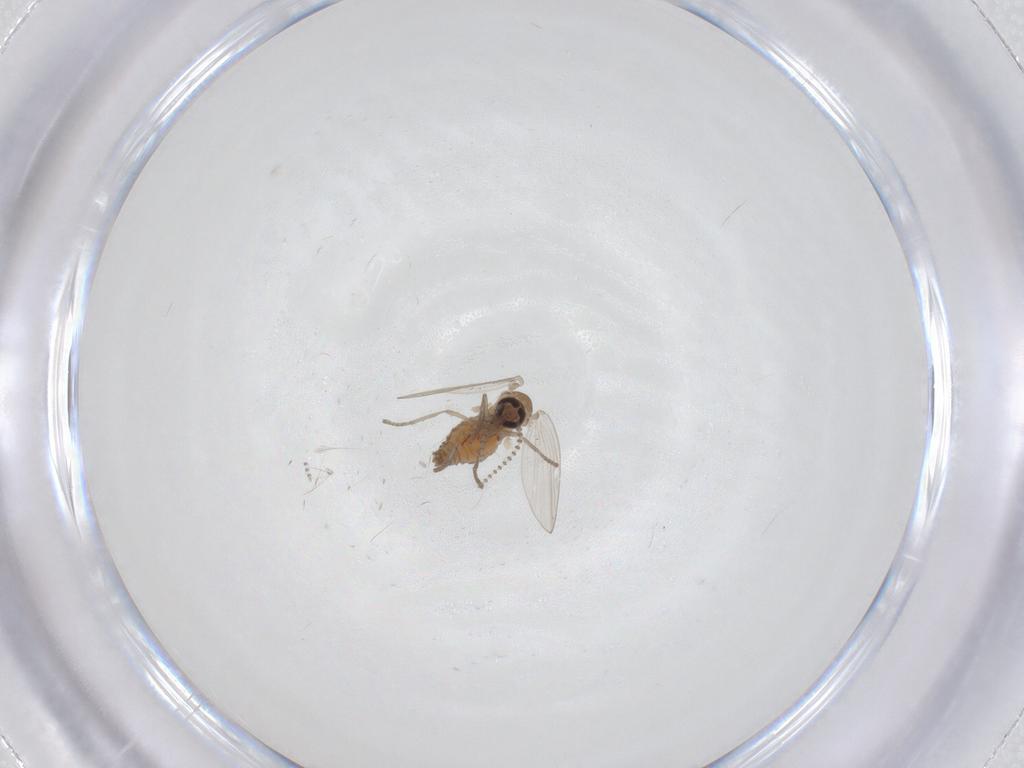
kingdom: Animalia
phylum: Arthropoda
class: Insecta
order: Diptera
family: Psychodidae
